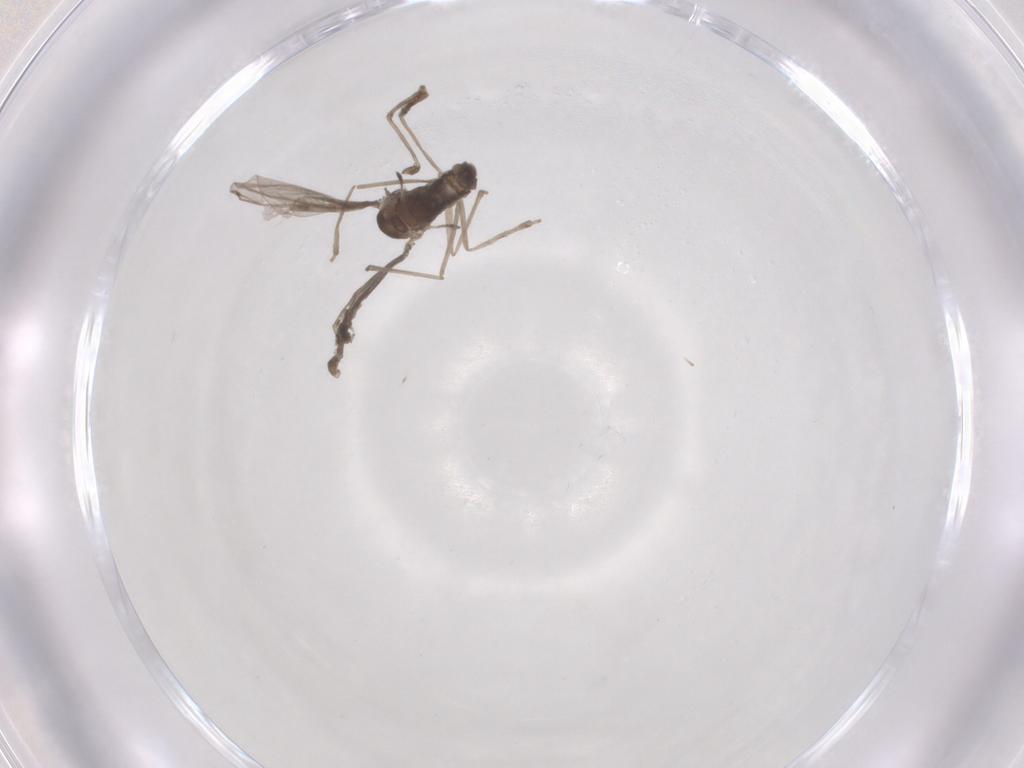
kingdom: Animalia
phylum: Arthropoda
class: Insecta
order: Diptera
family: Cecidomyiidae
